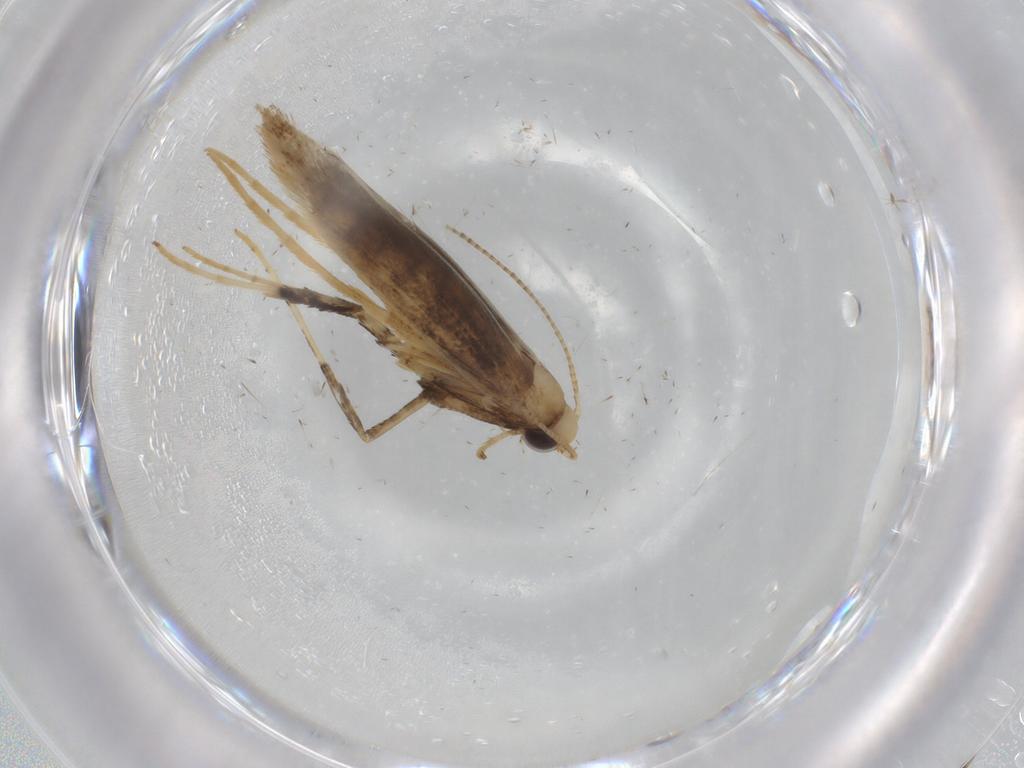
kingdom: Animalia
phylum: Arthropoda
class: Insecta
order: Lepidoptera
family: Gracillariidae
